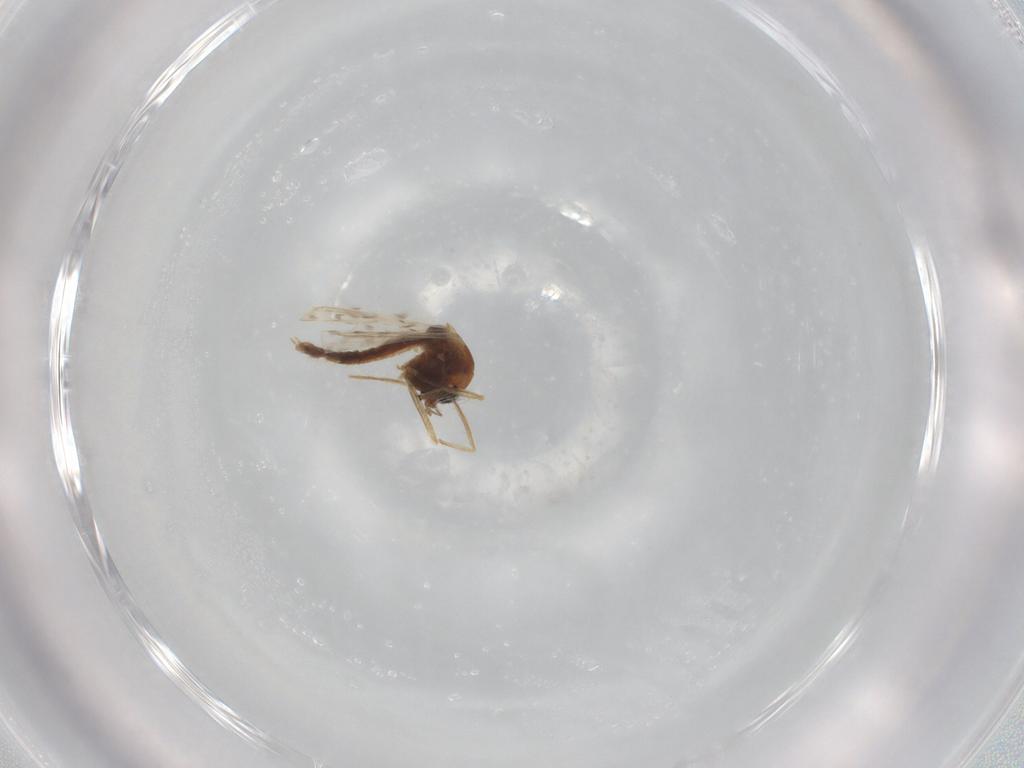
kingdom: Animalia
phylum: Arthropoda
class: Insecta
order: Diptera
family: Chironomidae
